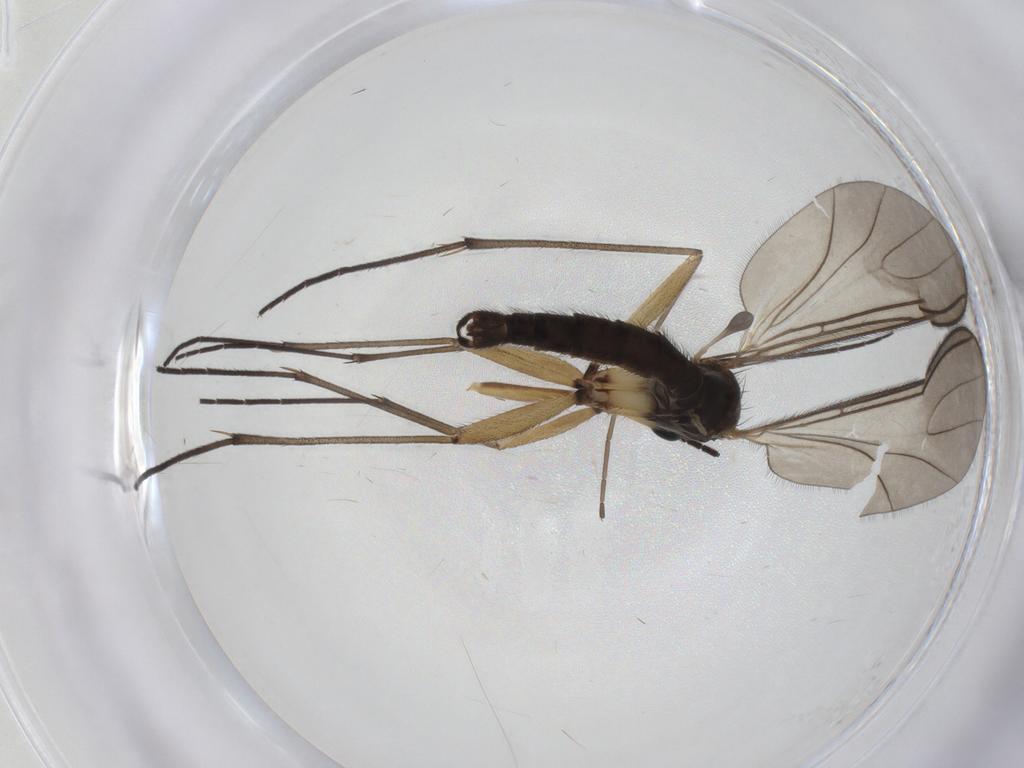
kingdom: Animalia
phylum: Arthropoda
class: Insecta
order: Diptera
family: Sciaridae
